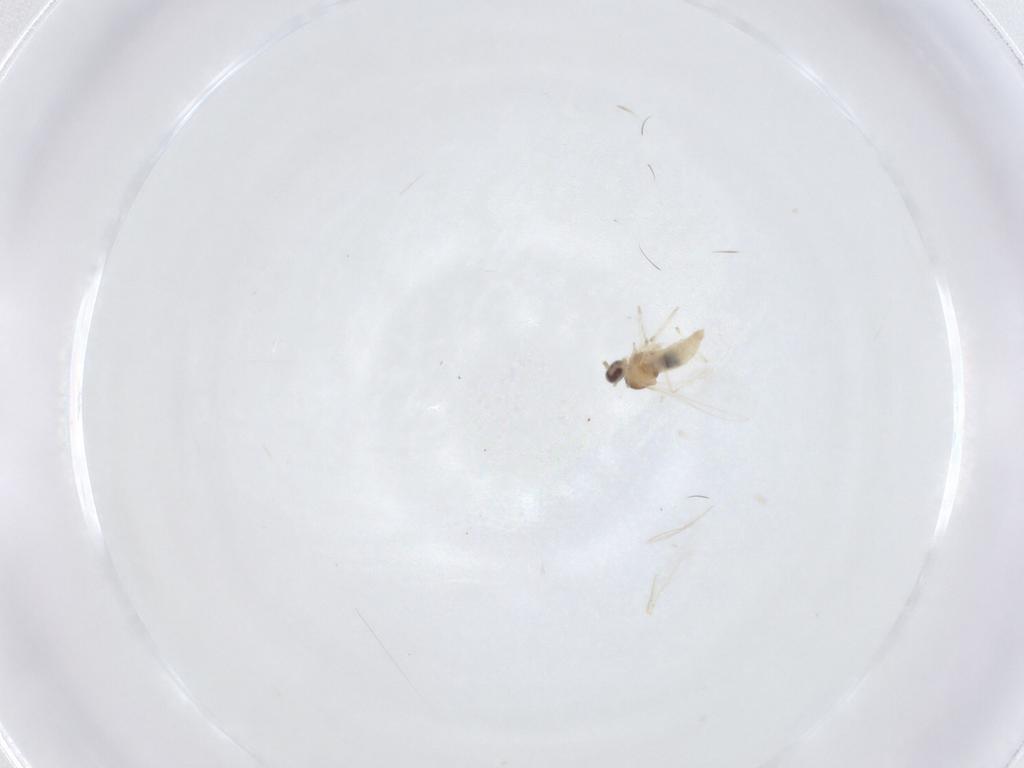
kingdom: Animalia
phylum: Arthropoda
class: Insecta
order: Diptera
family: Cecidomyiidae
